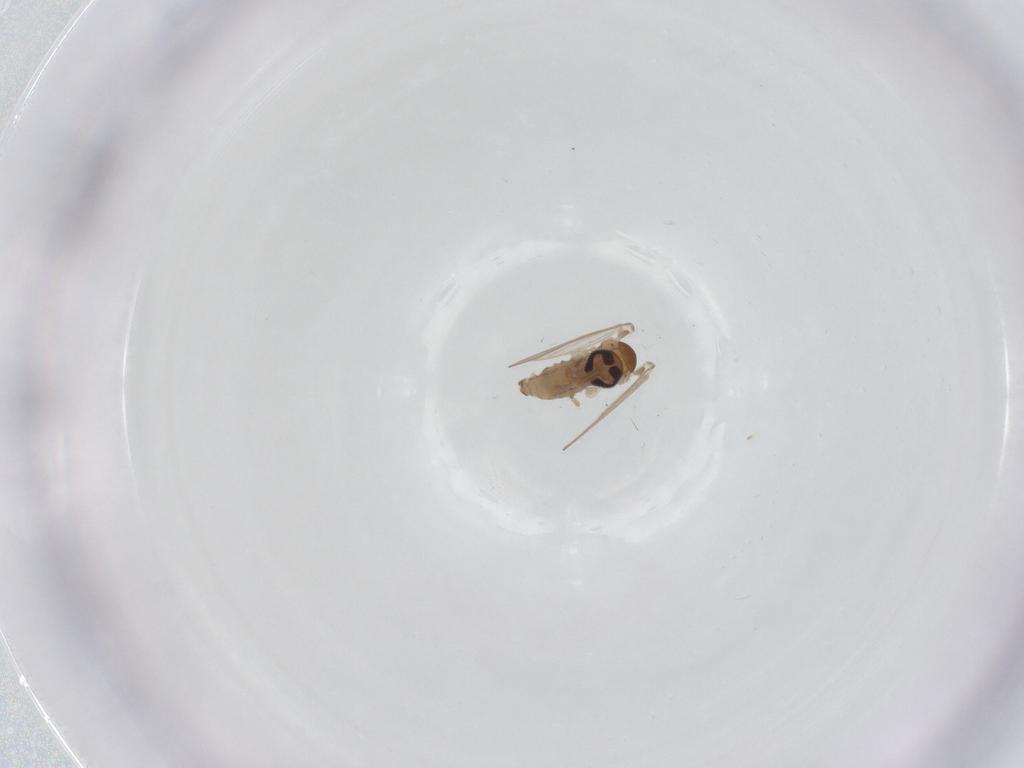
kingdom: Animalia
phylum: Arthropoda
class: Insecta
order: Diptera
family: Psychodidae
